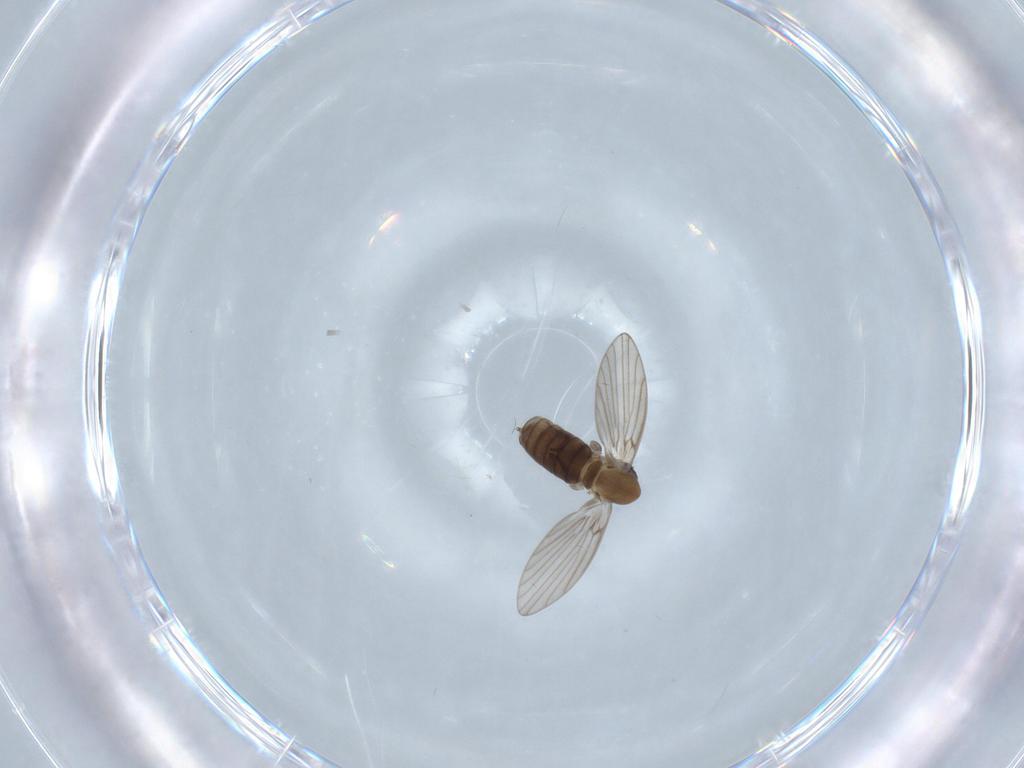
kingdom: Animalia
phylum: Arthropoda
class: Insecta
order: Diptera
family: Psychodidae
